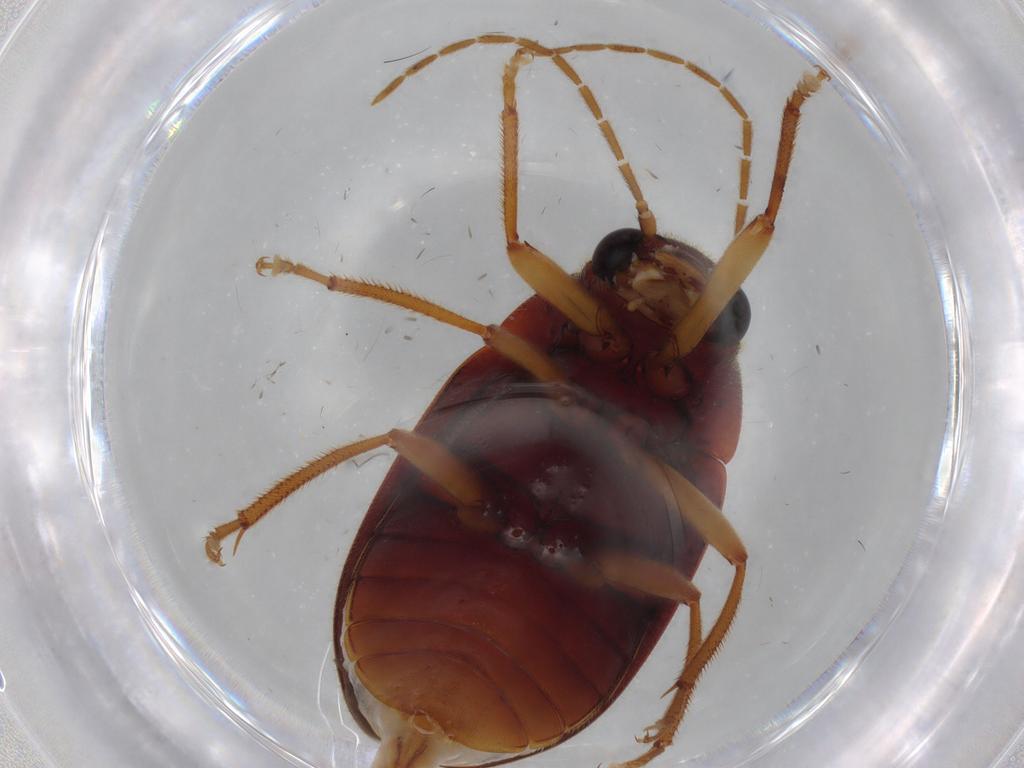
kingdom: Animalia
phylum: Arthropoda
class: Insecta
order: Coleoptera
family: Ptilodactylidae
